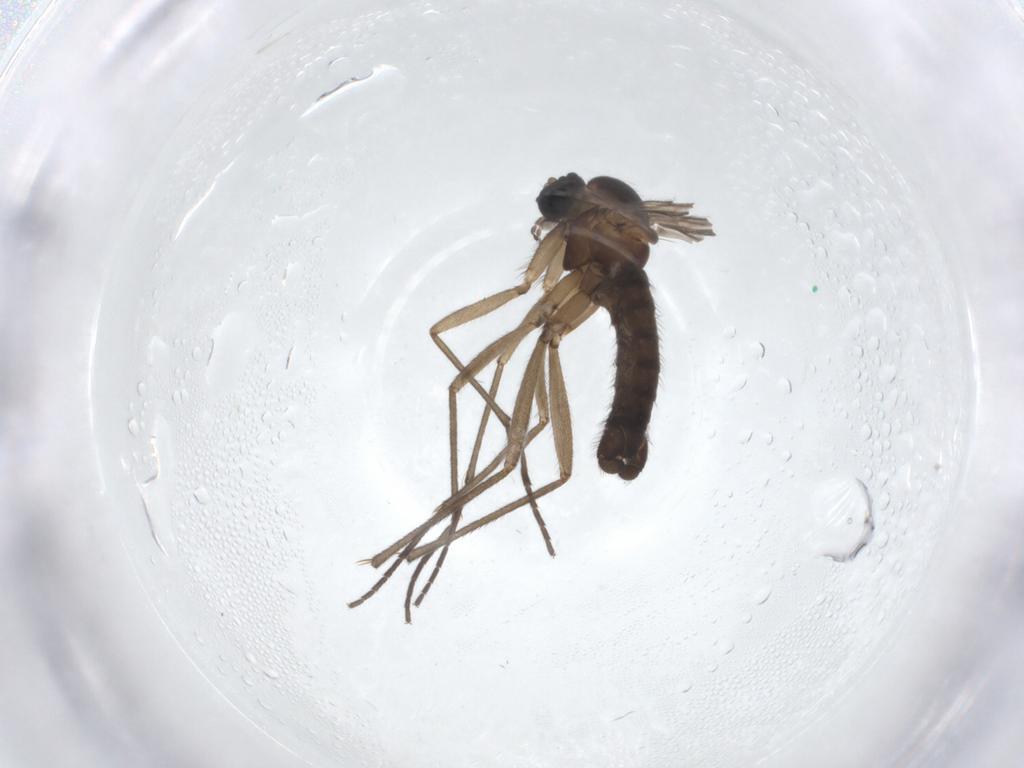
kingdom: Animalia
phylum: Arthropoda
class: Insecta
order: Diptera
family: Sciaridae
